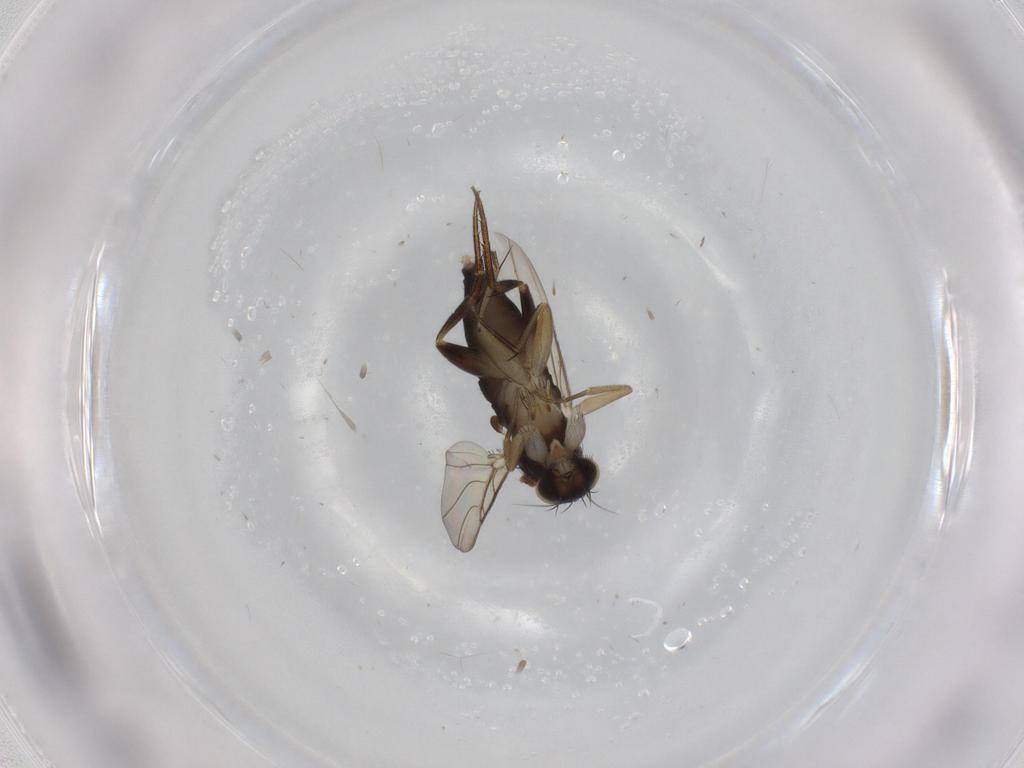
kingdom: Animalia
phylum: Arthropoda
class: Insecta
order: Diptera
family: Phoridae
